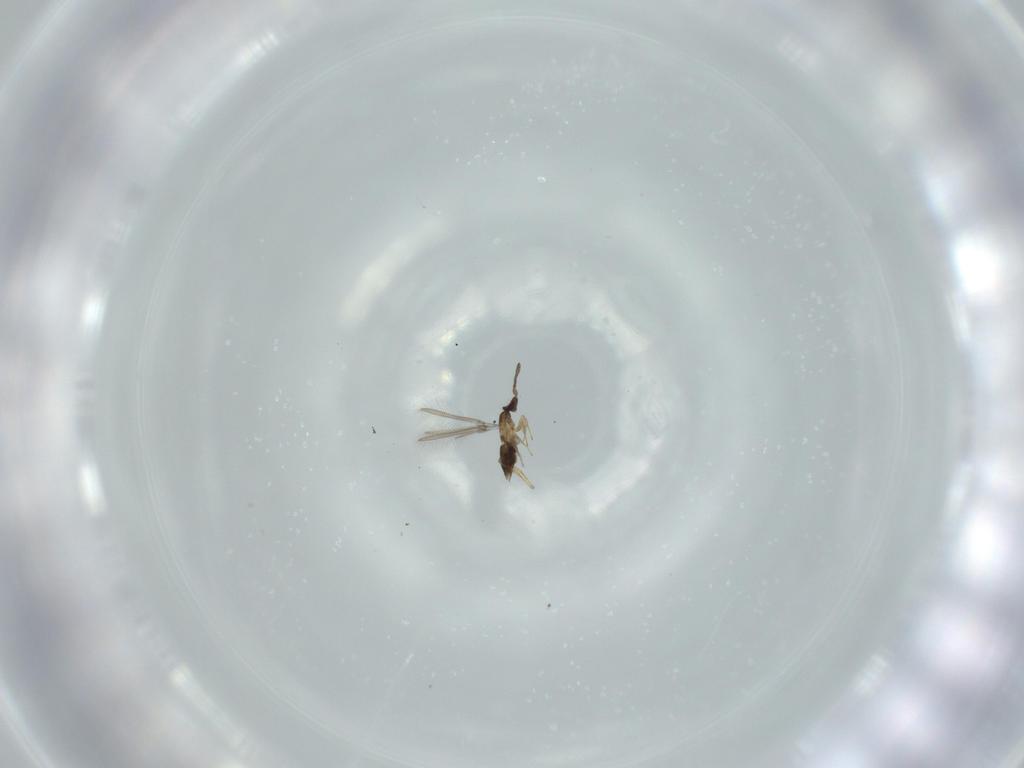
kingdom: Animalia
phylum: Arthropoda
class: Insecta
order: Hymenoptera
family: Mymaridae
